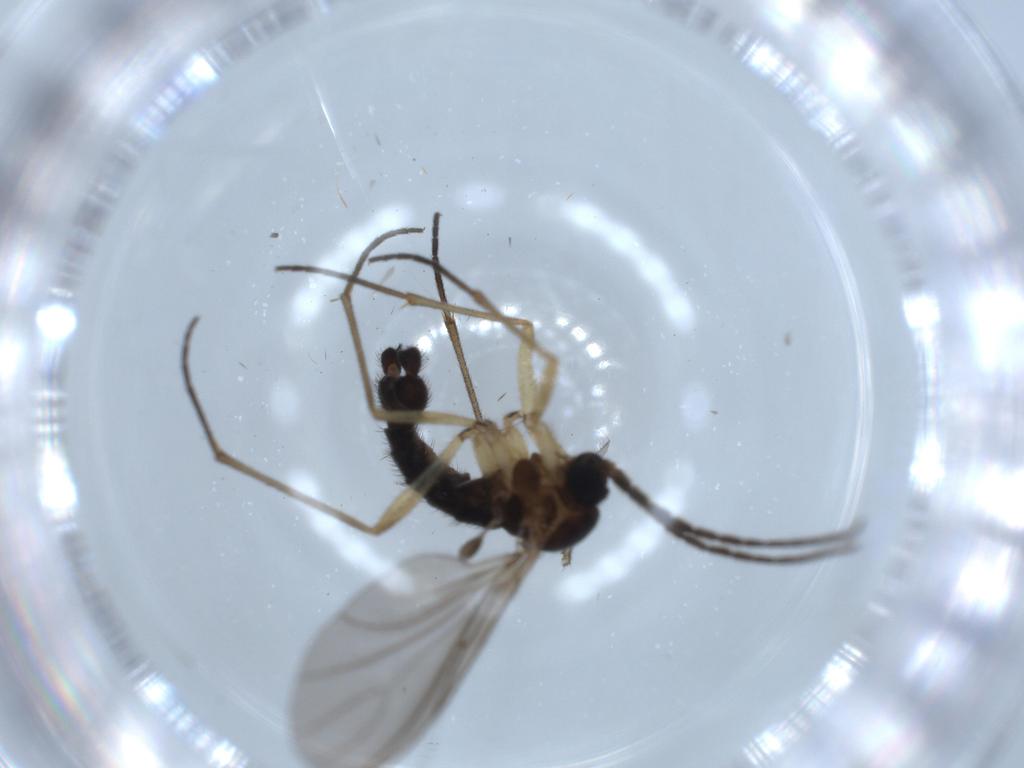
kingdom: Animalia
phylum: Arthropoda
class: Insecta
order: Diptera
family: Sciaridae
